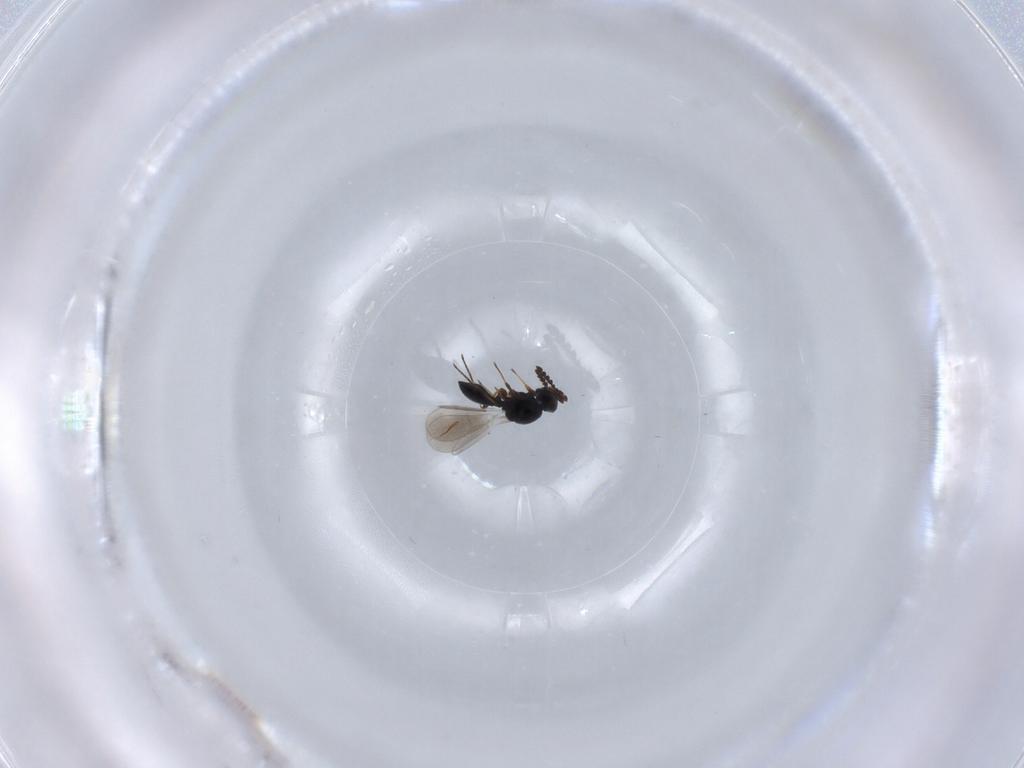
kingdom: Animalia
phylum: Arthropoda
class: Insecta
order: Hymenoptera
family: Platygastridae
